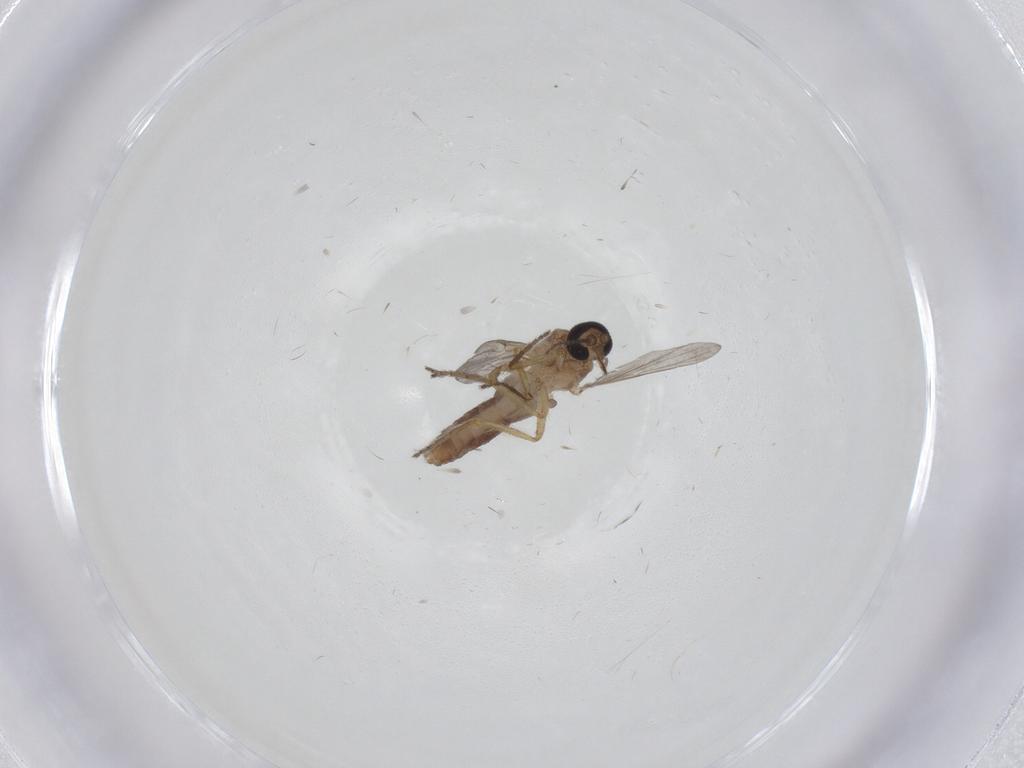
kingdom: Animalia
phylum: Arthropoda
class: Insecta
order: Diptera
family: Ceratopogonidae
